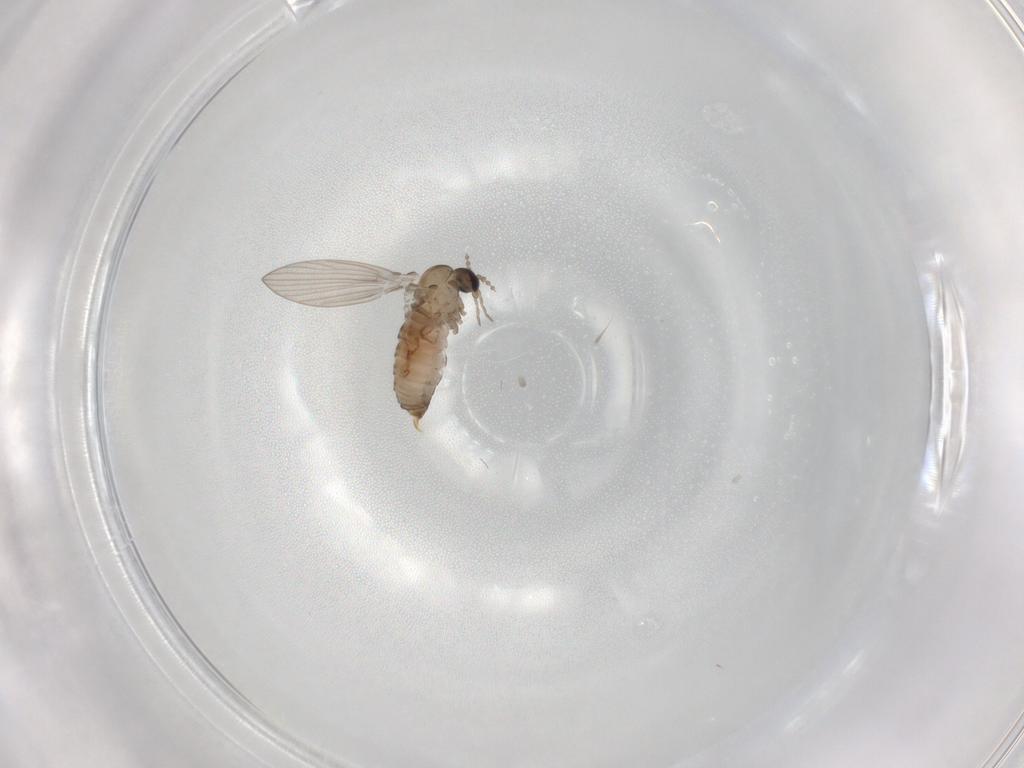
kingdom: Animalia
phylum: Arthropoda
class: Insecta
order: Diptera
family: Psychodidae
